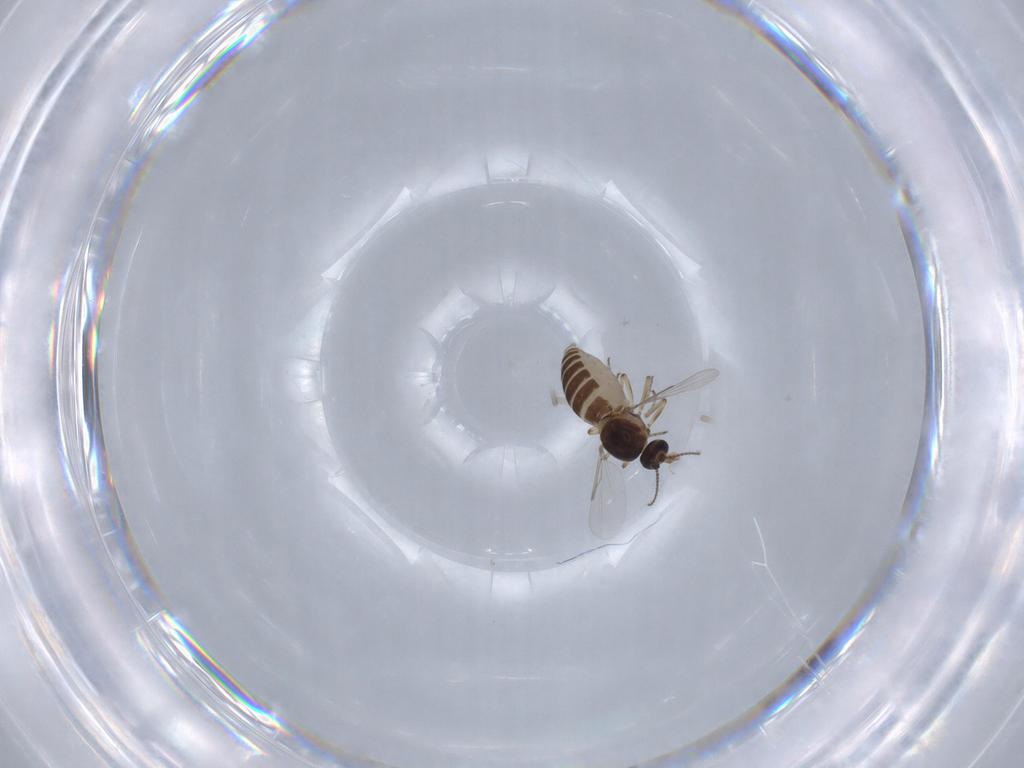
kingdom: Animalia
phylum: Arthropoda
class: Insecta
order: Diptera
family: Ceratopogonidae
